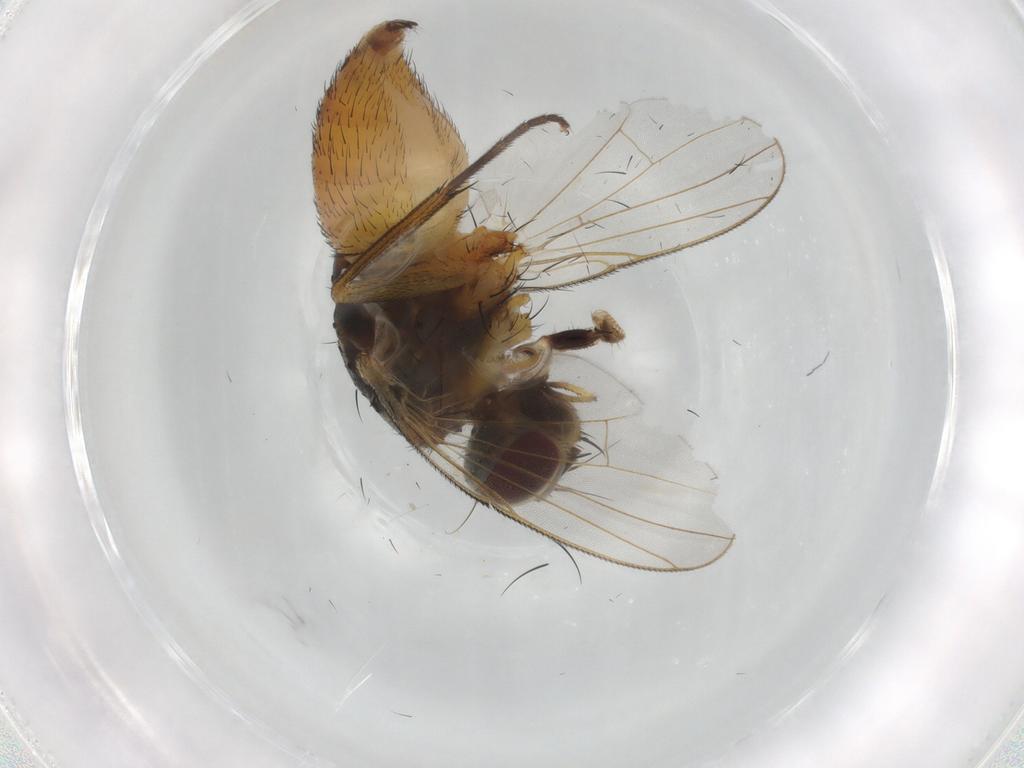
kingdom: Animalia
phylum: Arthropoda
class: Insecta
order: Diptera
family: Muscidae
